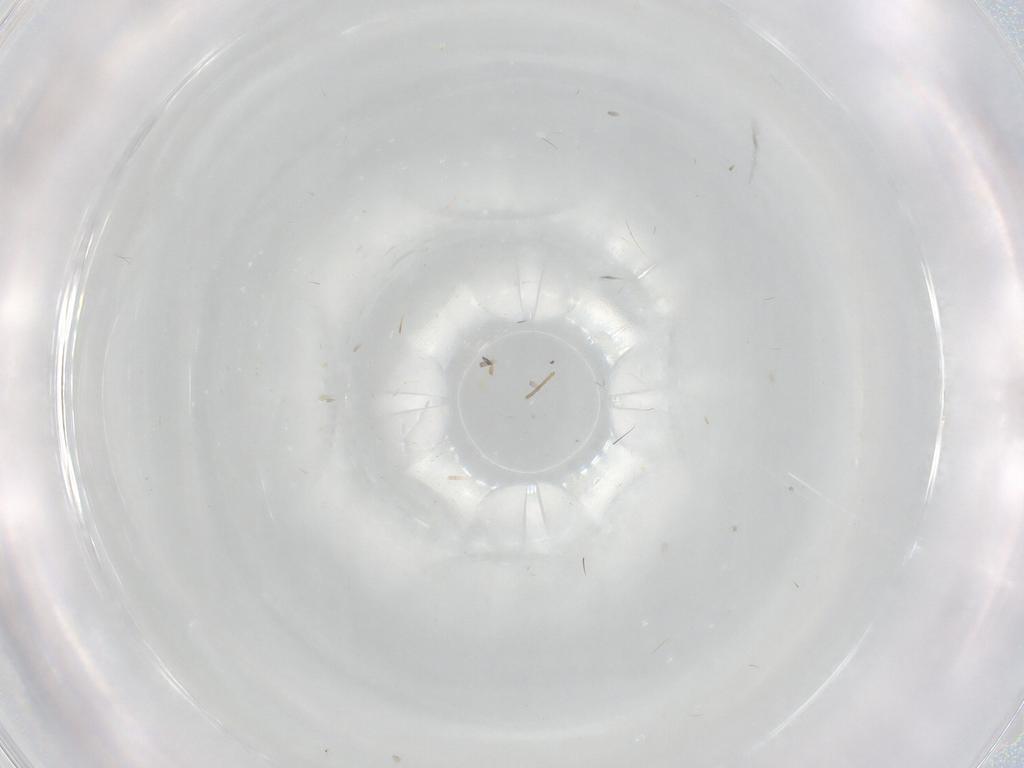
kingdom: Animalia
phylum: Arthropoda
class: Insecta
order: Diptera
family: Chironomidae
